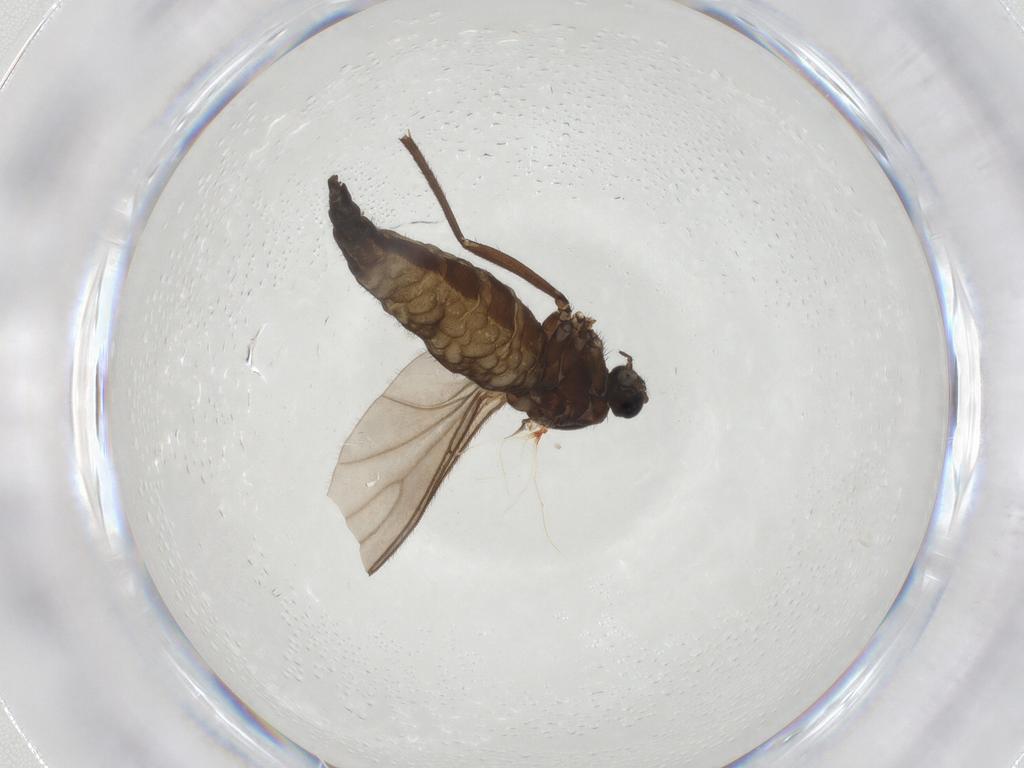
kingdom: Animalia
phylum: Arthropoda
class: Insecta
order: Diptera
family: Sciaridae
